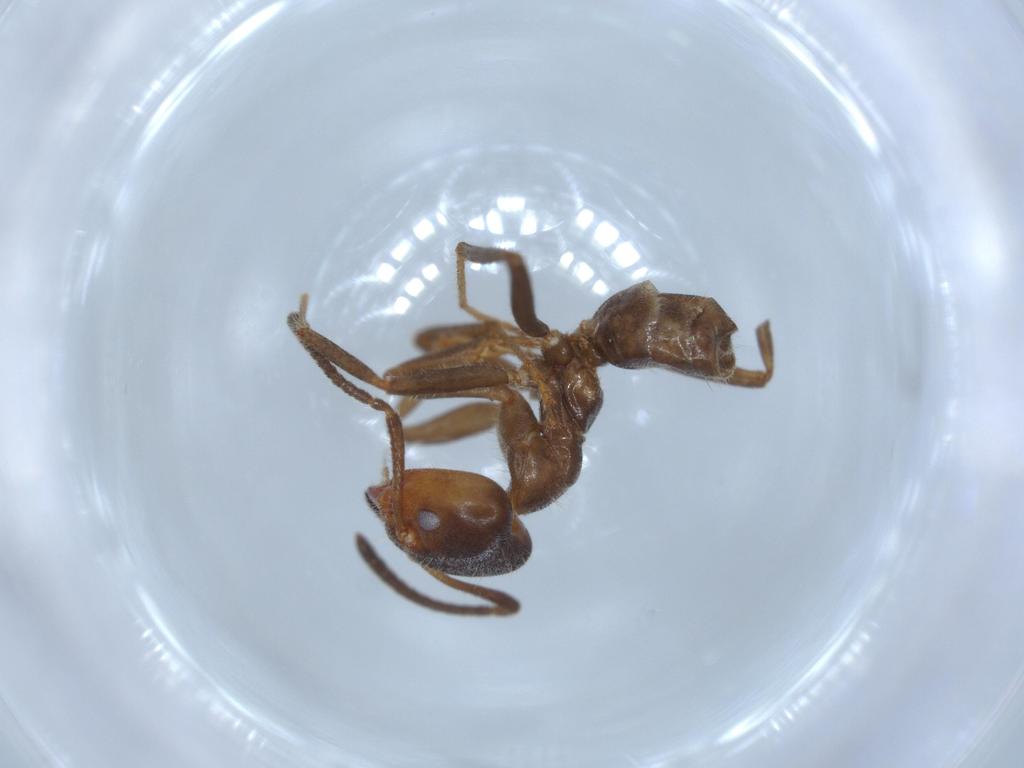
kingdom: Animalia
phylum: Arthropoda
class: Insecta
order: Hymenoptera
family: Formicidae
